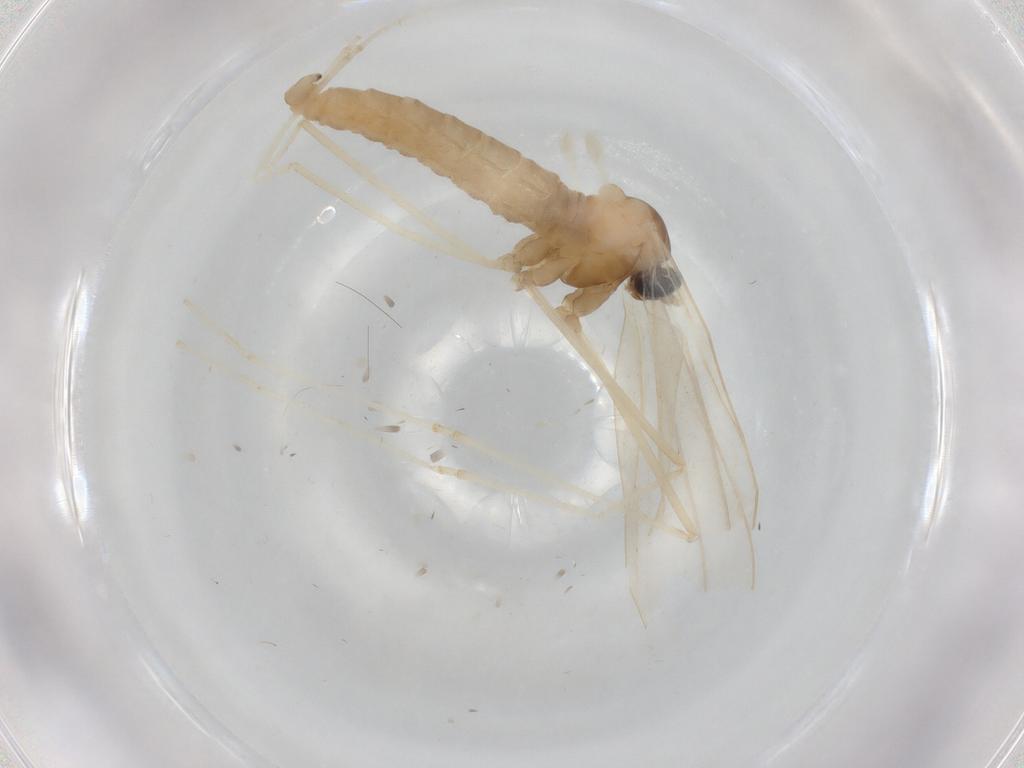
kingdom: Animalia
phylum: Arthropoda
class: Insecta
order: Diptera
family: Cecidomyiidae
